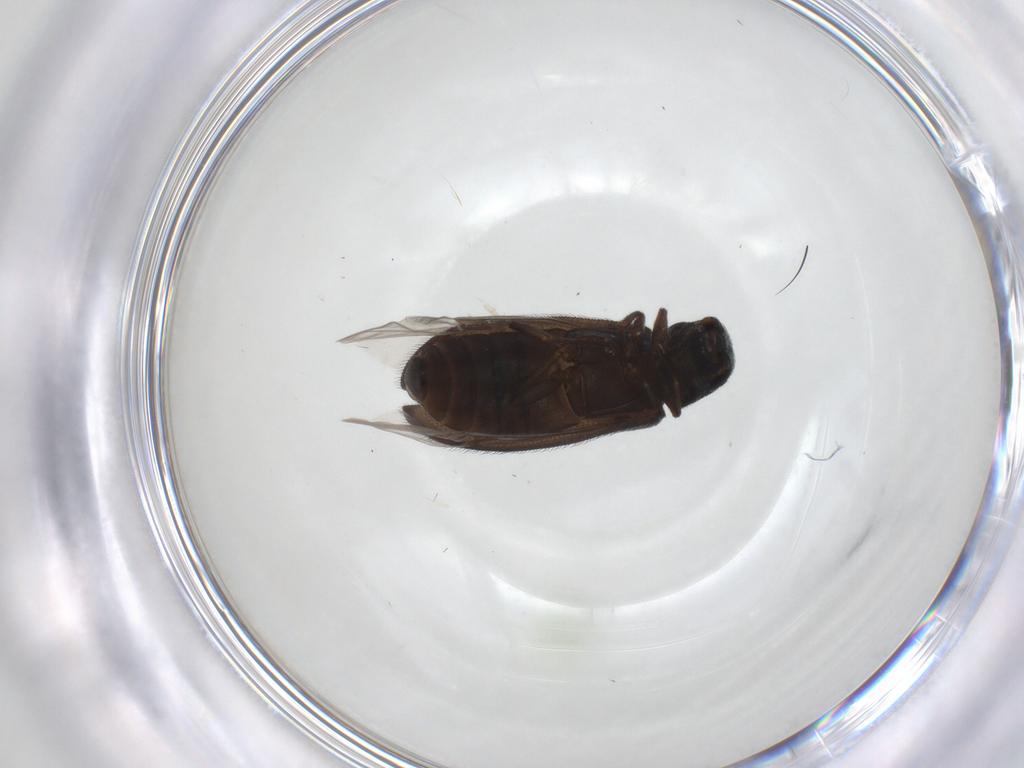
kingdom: Animalia
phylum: Arthropoda
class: Insecta
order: Coleoptera
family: Melyridae
